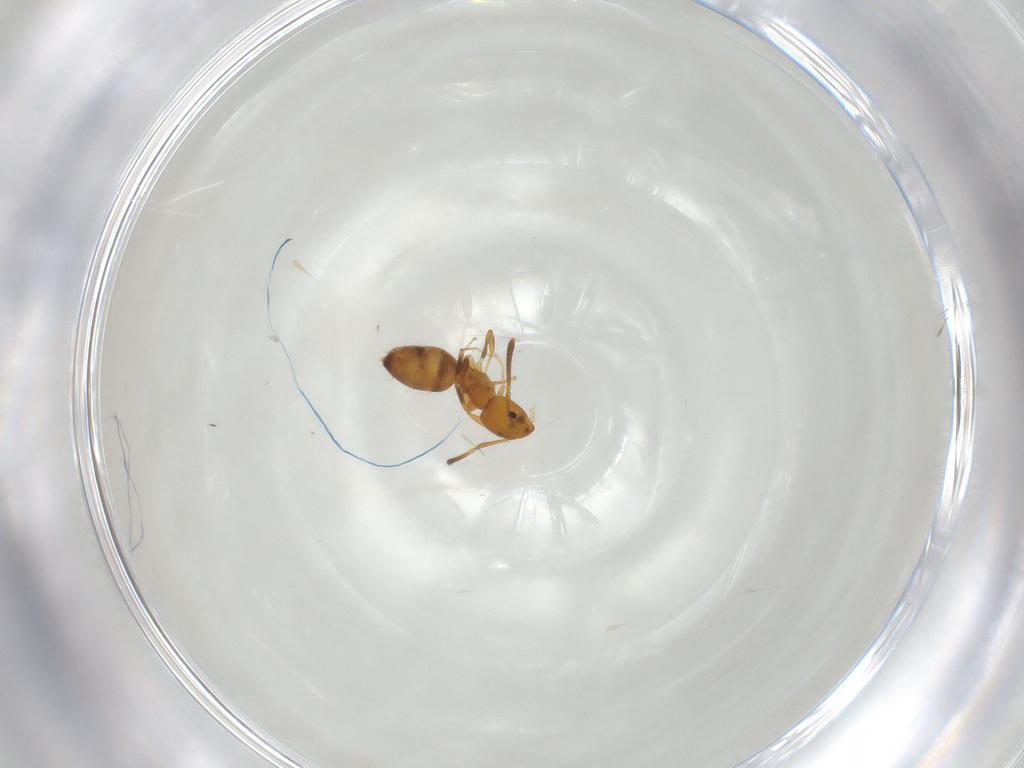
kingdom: Animalia
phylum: Arthropoda
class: Insecta
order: Hymenoptera
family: Formicidae
